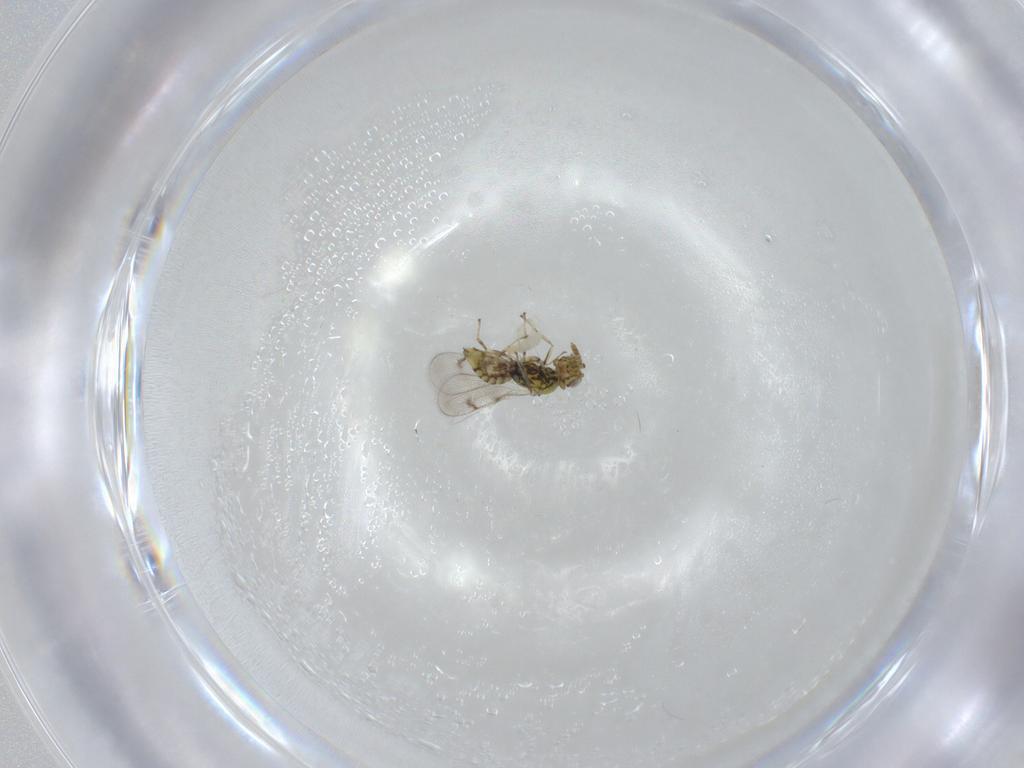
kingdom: Animalia
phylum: Arthropoda
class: Insecta
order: Hymenoptera
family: Eulophidae
